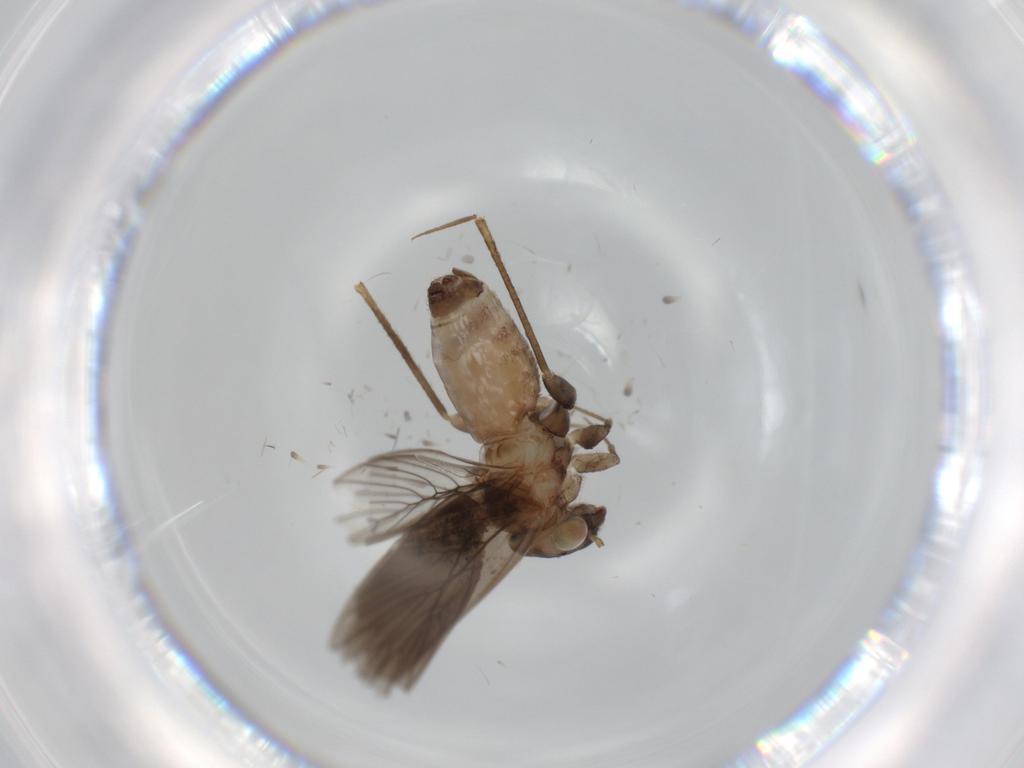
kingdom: Animalia
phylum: Arthropoda
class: Insecta
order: Psocodea
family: Lepidopsocidae
